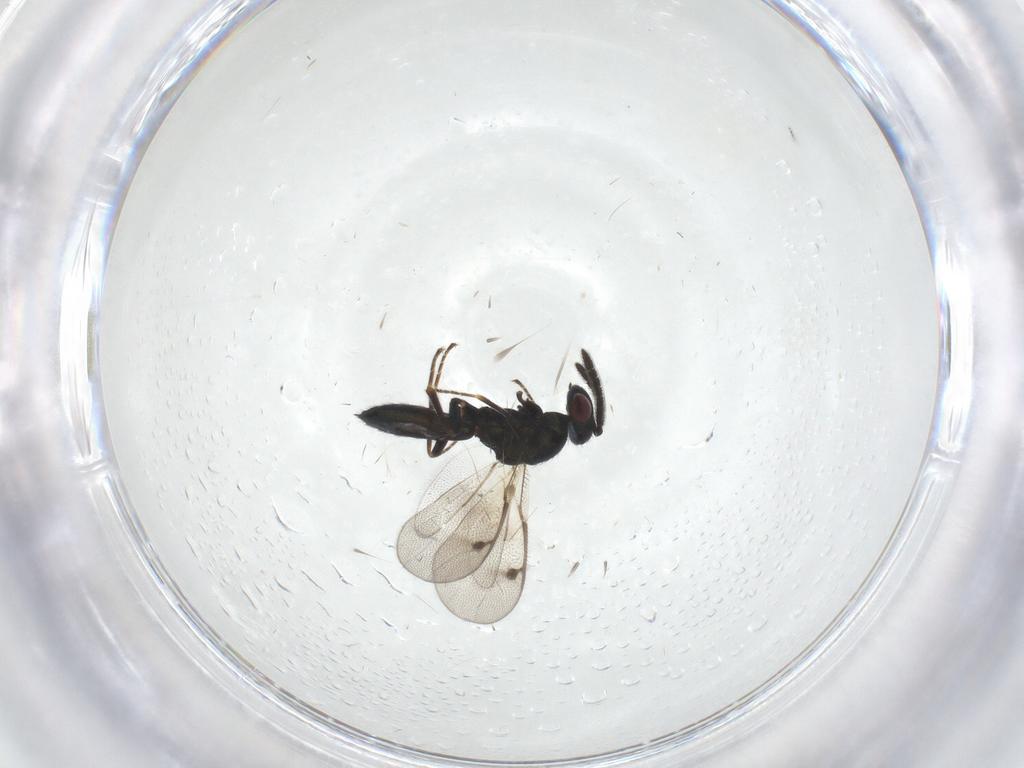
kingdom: Animalia
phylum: Arthropoda
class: Insecta
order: Hymenoptera
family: Pteromalidae
